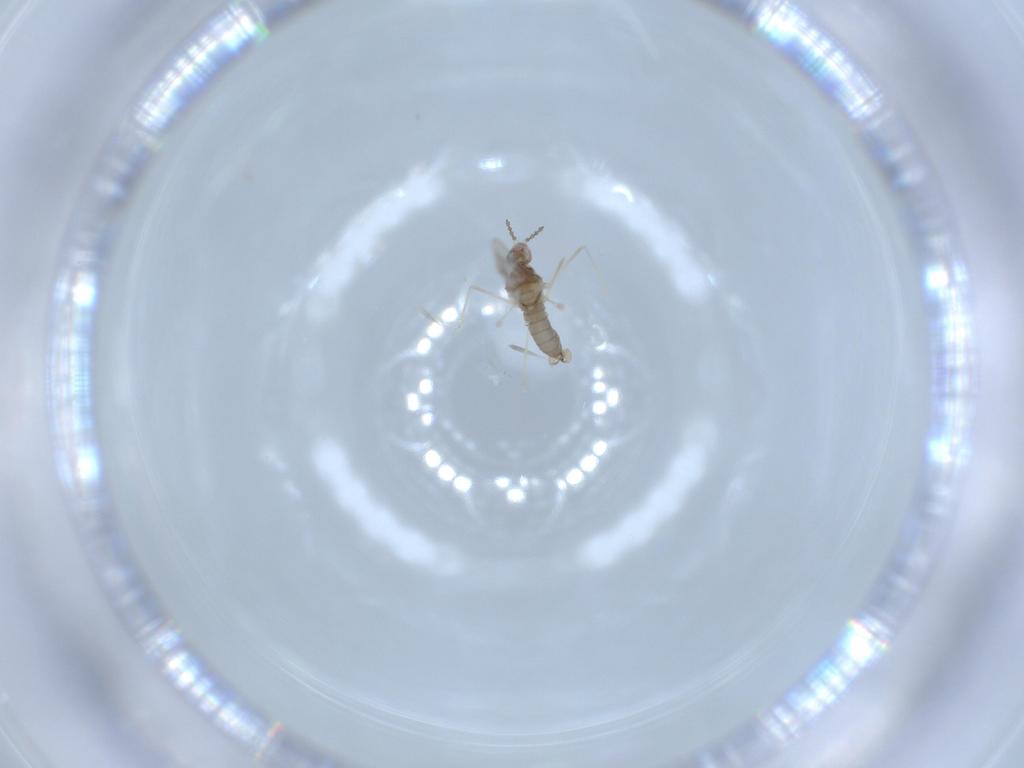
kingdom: Animalia
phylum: Arthropoda
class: Insecta
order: Diptera
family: Cecidomyiidae
